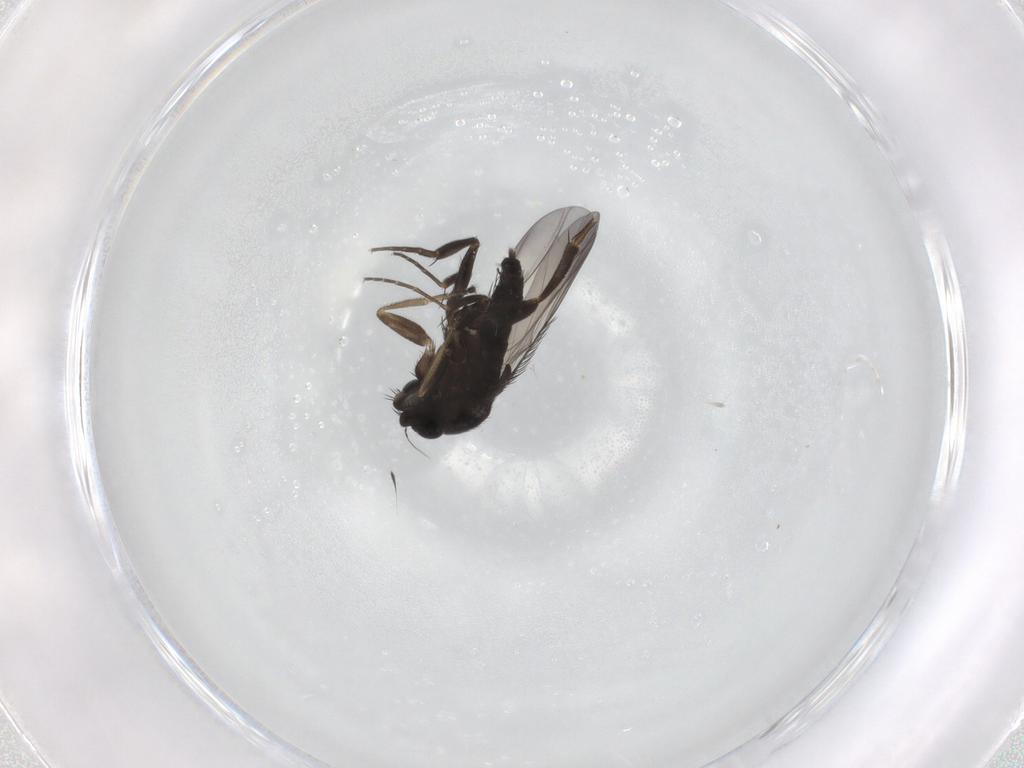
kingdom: Animalia
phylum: Arthropoda
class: Insecta
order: Diptera
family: Phoridae
